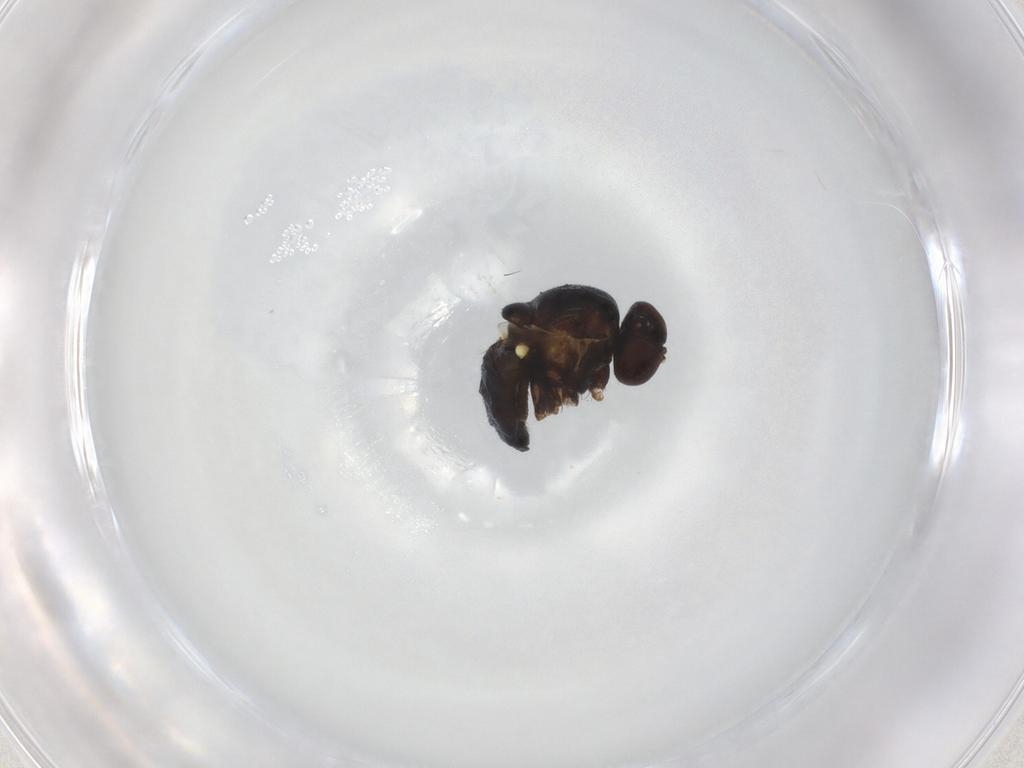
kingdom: Animalia
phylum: Arthropoda
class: Insecta
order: Diptera
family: Agromyzidae
